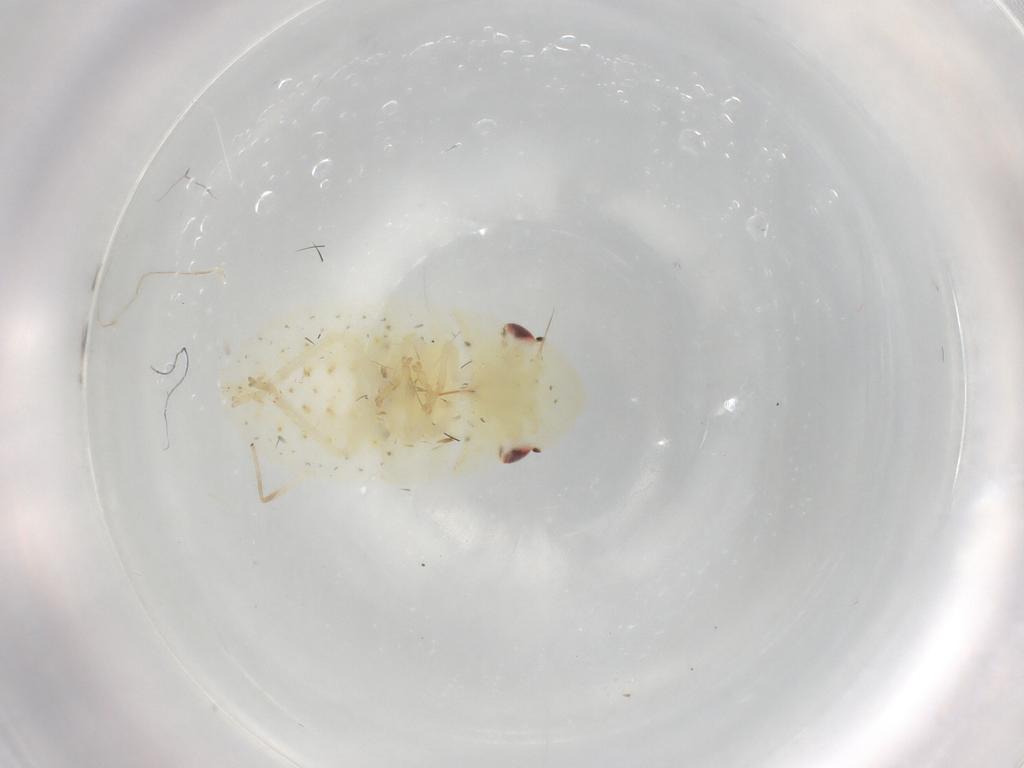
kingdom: Animalia
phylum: Arthropoda
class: Insecta
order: Hemiptera
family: Cicadellidae
